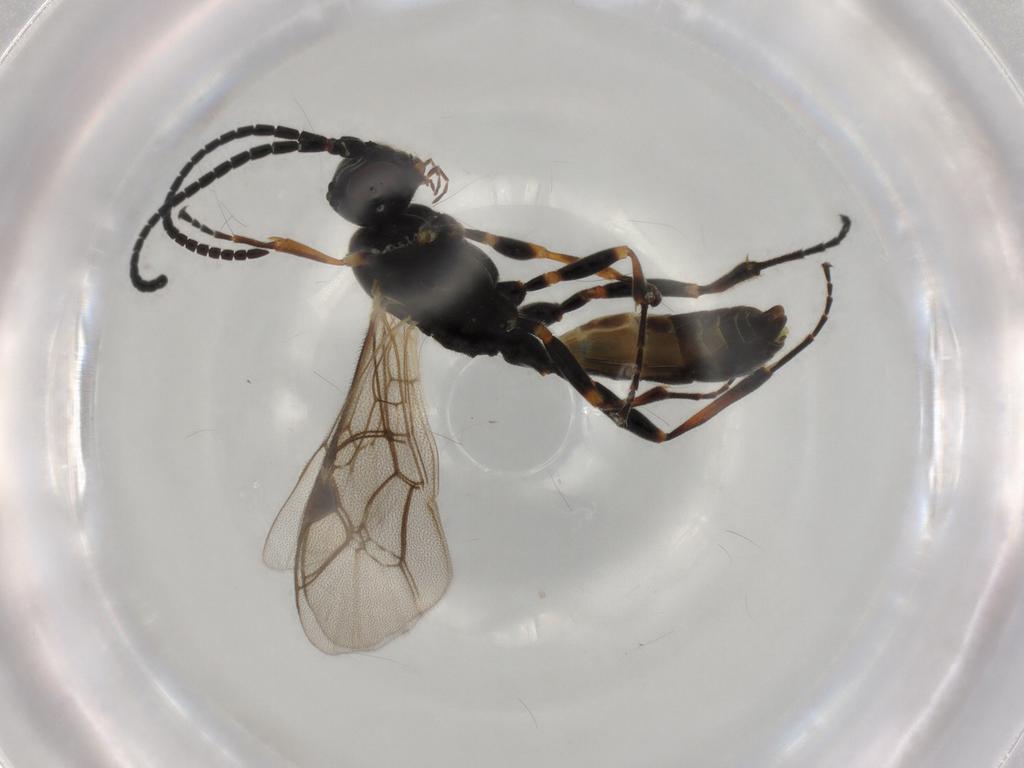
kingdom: Animalia
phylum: Arthropoda
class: Insecta
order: Hymenoptera
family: Ichneumonidae
